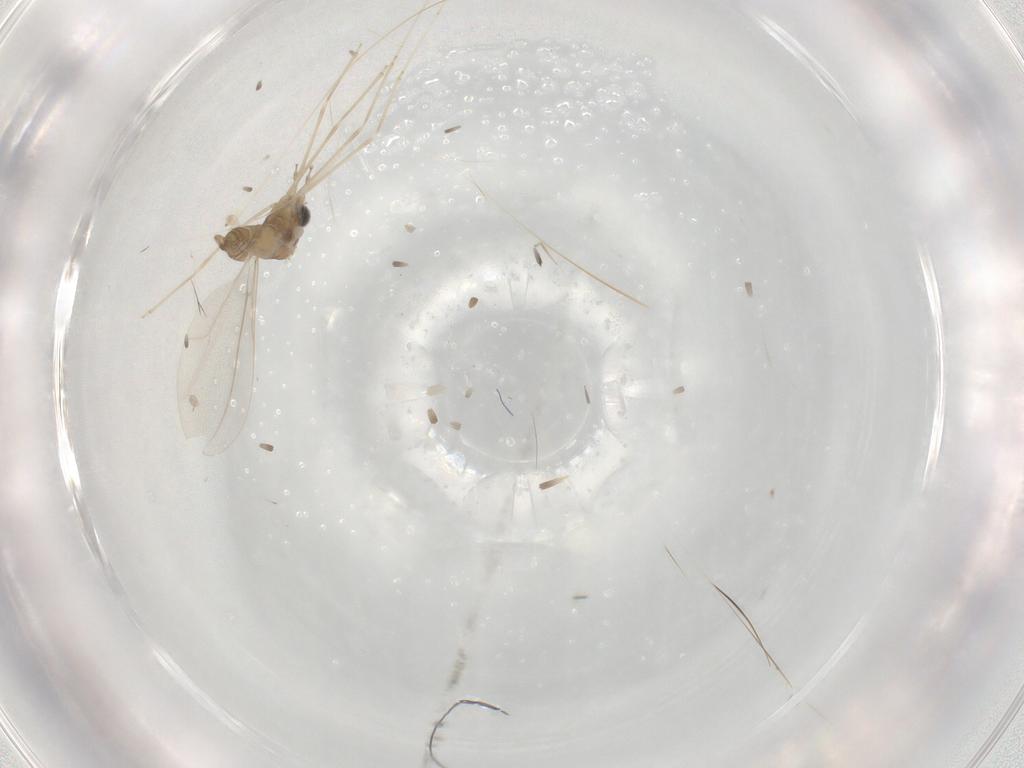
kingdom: Animalia
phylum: Arthropoda
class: Insecta
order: Diptera
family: Cecidomyiidae
